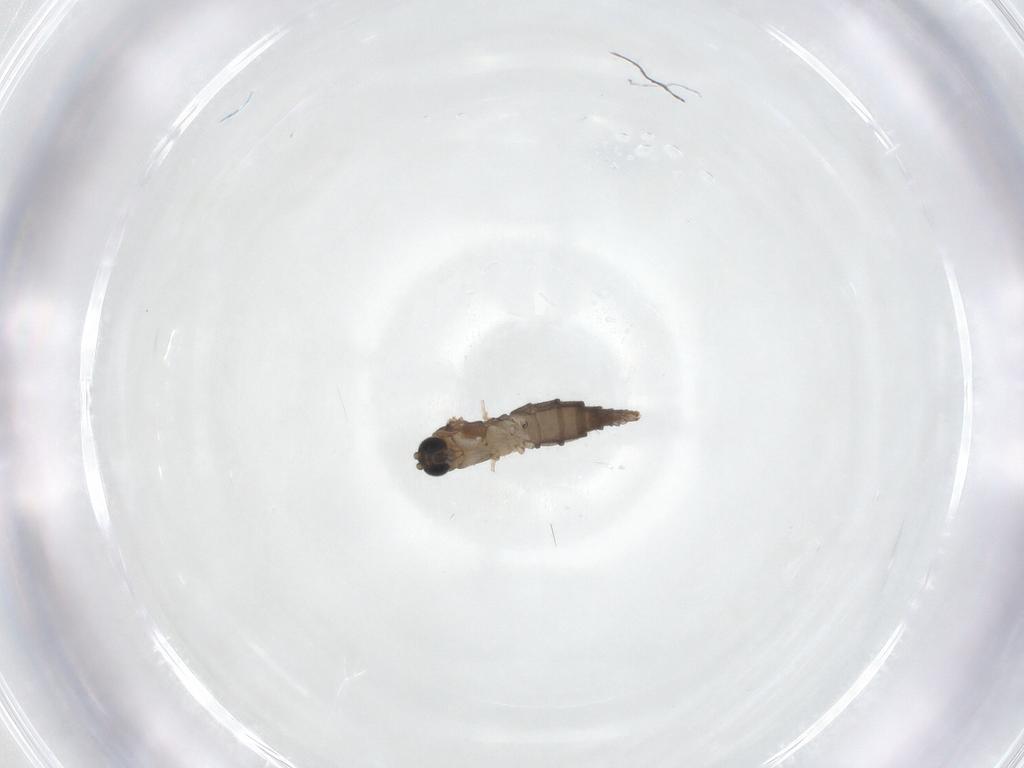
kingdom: Animalia
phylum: Arthropoda
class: Insecta
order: Diptera
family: Sciaridae
